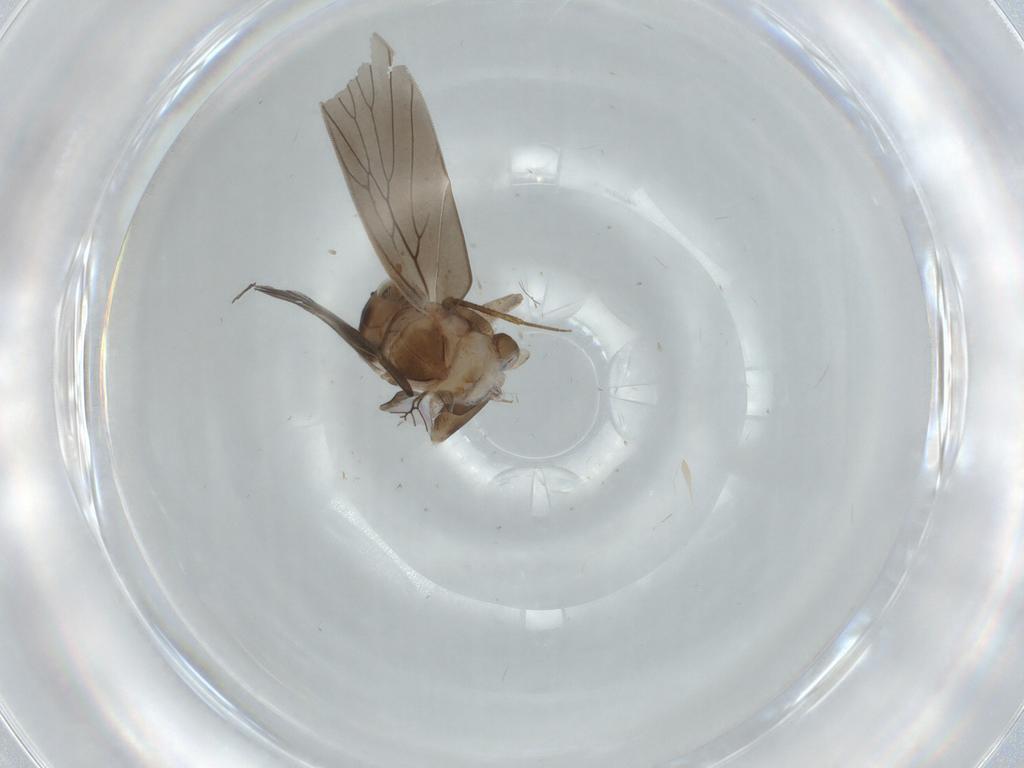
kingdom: Animalia
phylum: Arthropoda
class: Insecta
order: Psocodea
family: Lepidopsocidae
